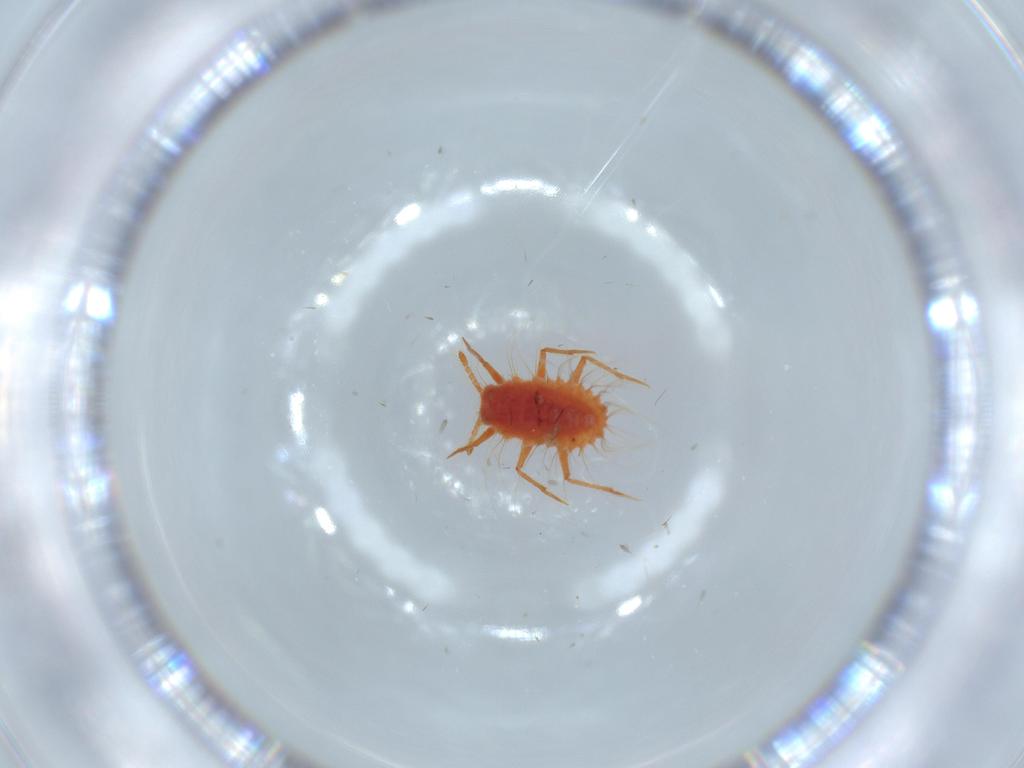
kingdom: Animalia
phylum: Arthropoda
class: Insecta
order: Hemiptera
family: Monophlebidae
